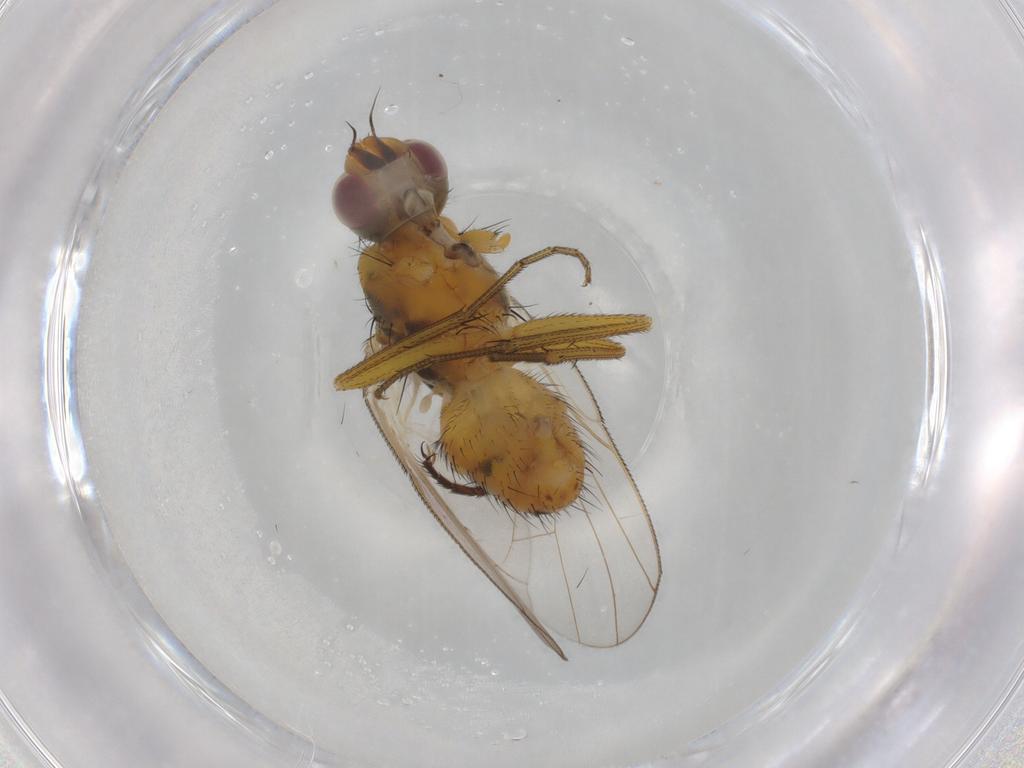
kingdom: Animalia
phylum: Arthropoda
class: Insecta
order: Diptera
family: Muscidae
